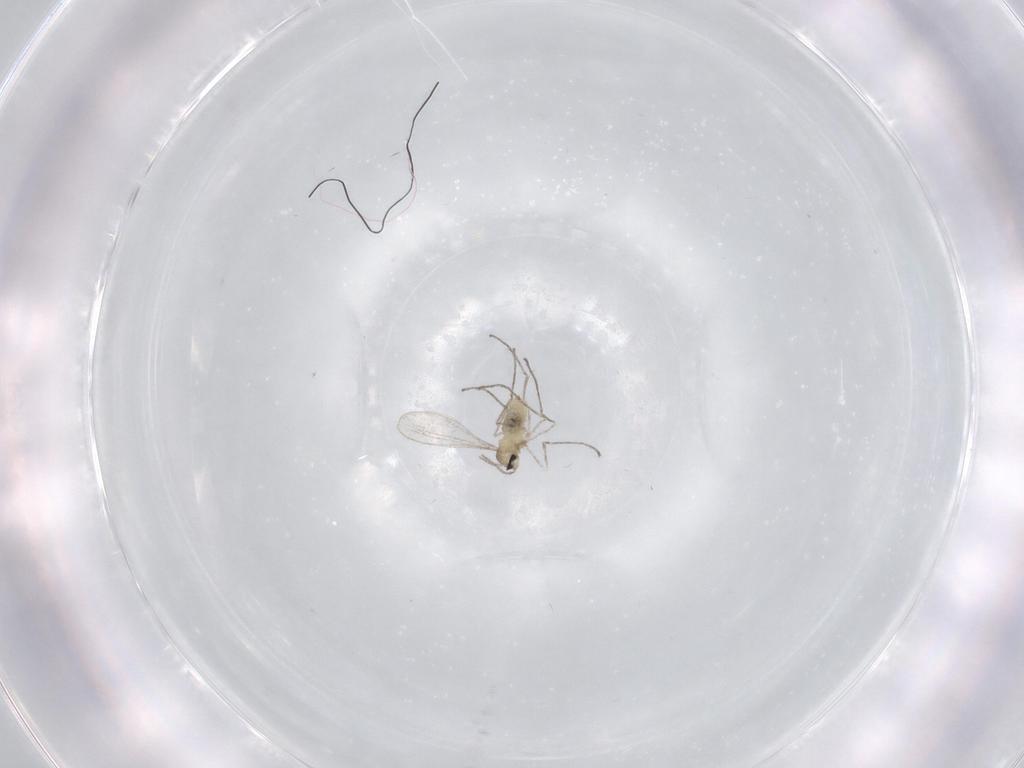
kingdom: Animalia
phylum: Arthropoda
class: Insecta
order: Diptera
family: Cecidomyiidae
